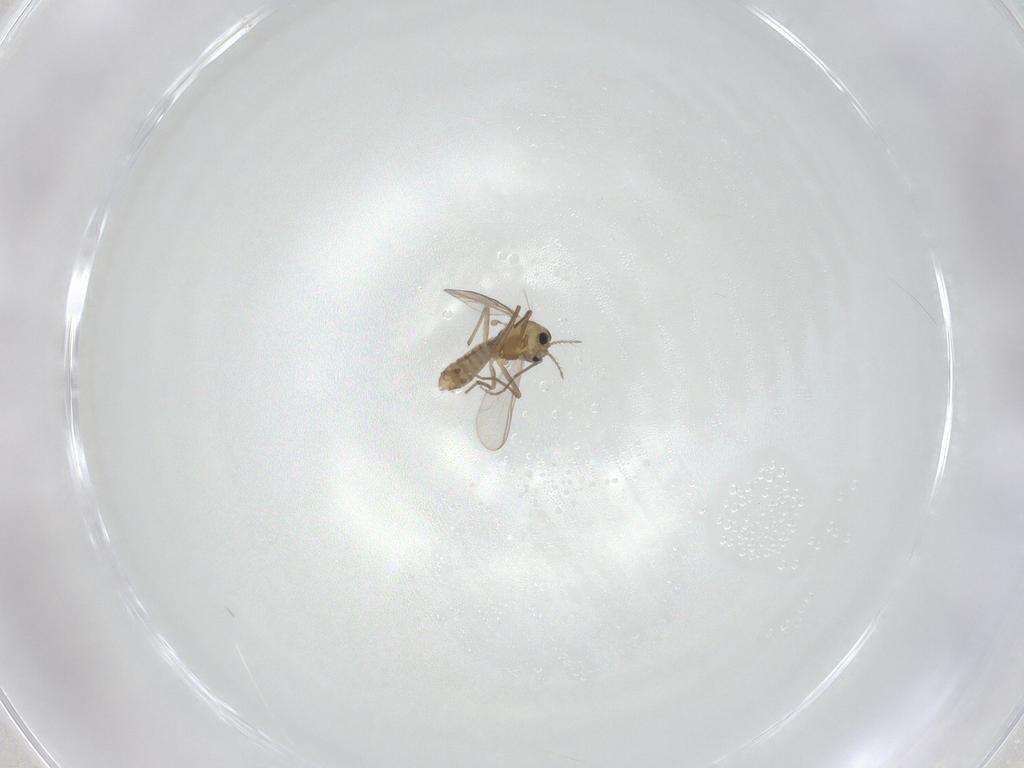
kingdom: Animalia
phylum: Arthropoda
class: Insecta
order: Diptera
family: Chironomidae
